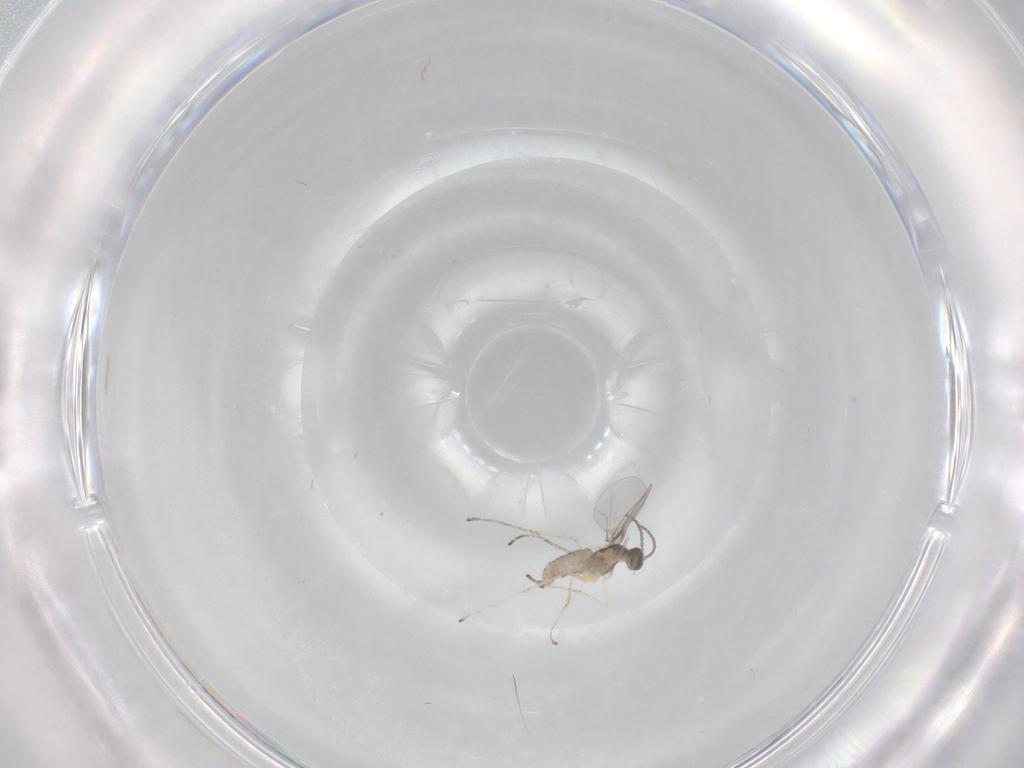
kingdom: Animalia
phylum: Arthropoda
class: Insecta
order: Diptera
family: Cecidomyiidae
